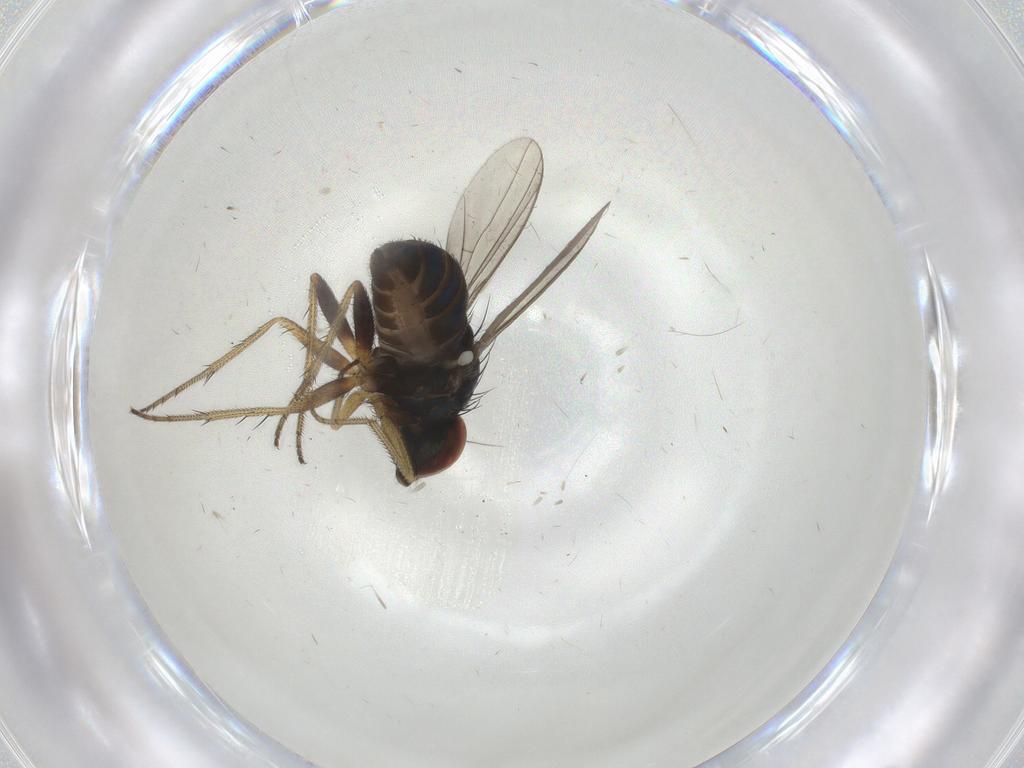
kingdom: Animalia
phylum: Arthropoda
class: Insecta
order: Diptera
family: Dolichopodidae
